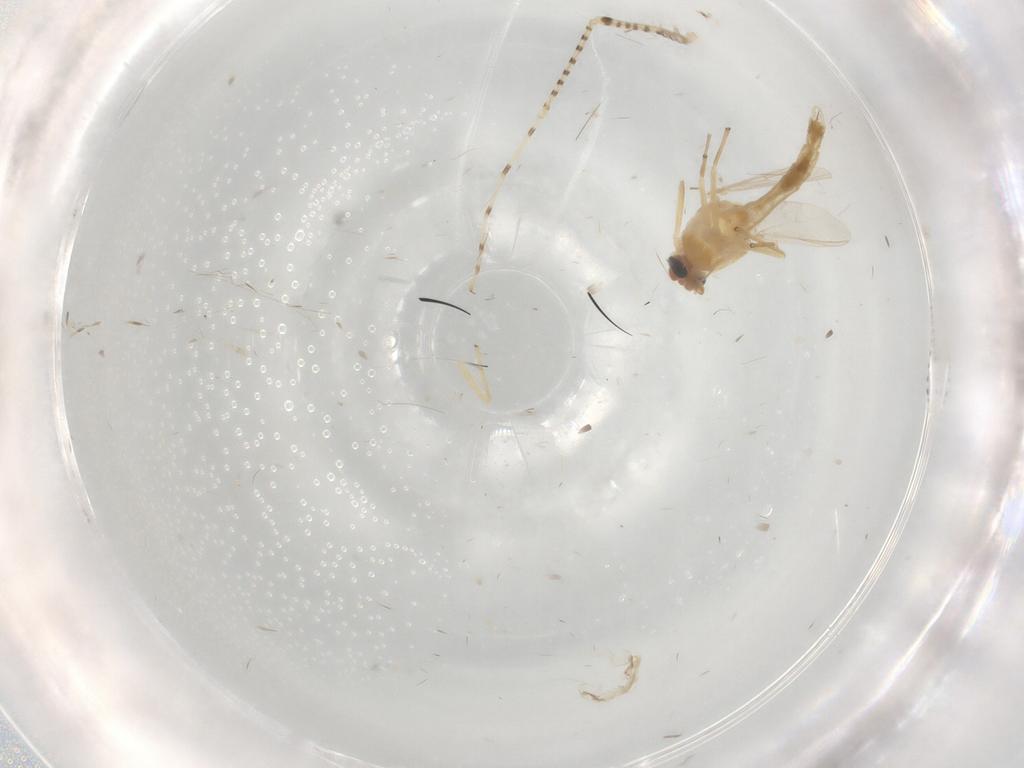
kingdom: Animalia
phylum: Arthropoda
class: Insecta
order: Diptera
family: Chironomidae
